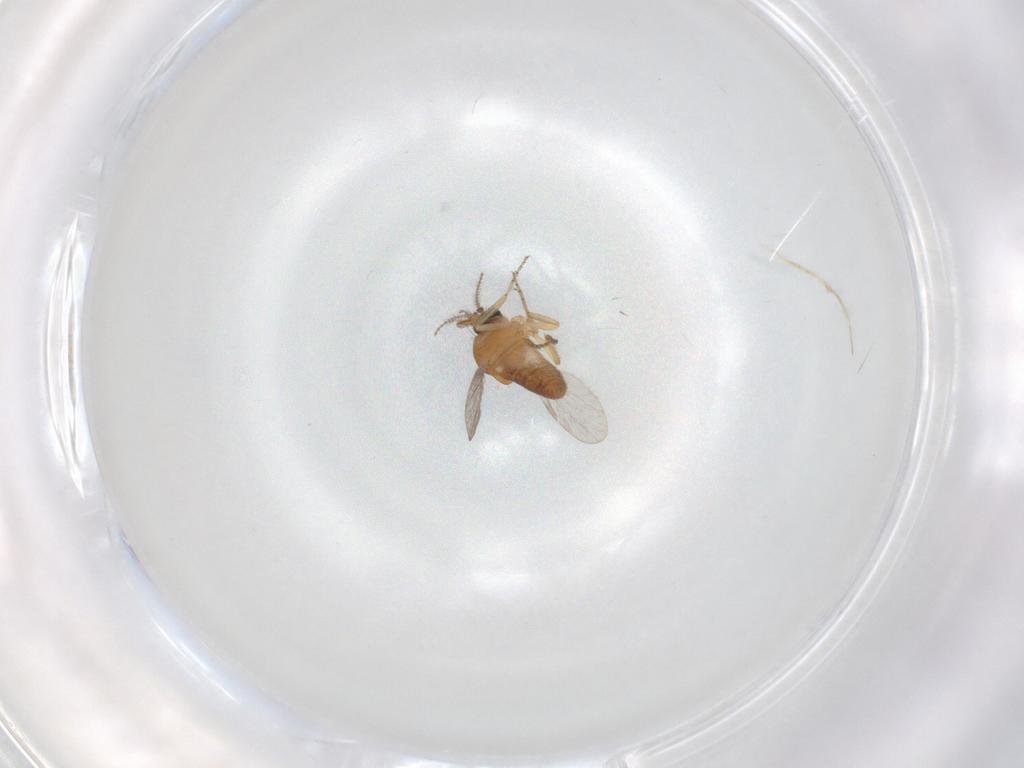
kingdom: Animalia
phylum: Arthropoda
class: Insecta
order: Diptera
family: Ceratopogonidae
